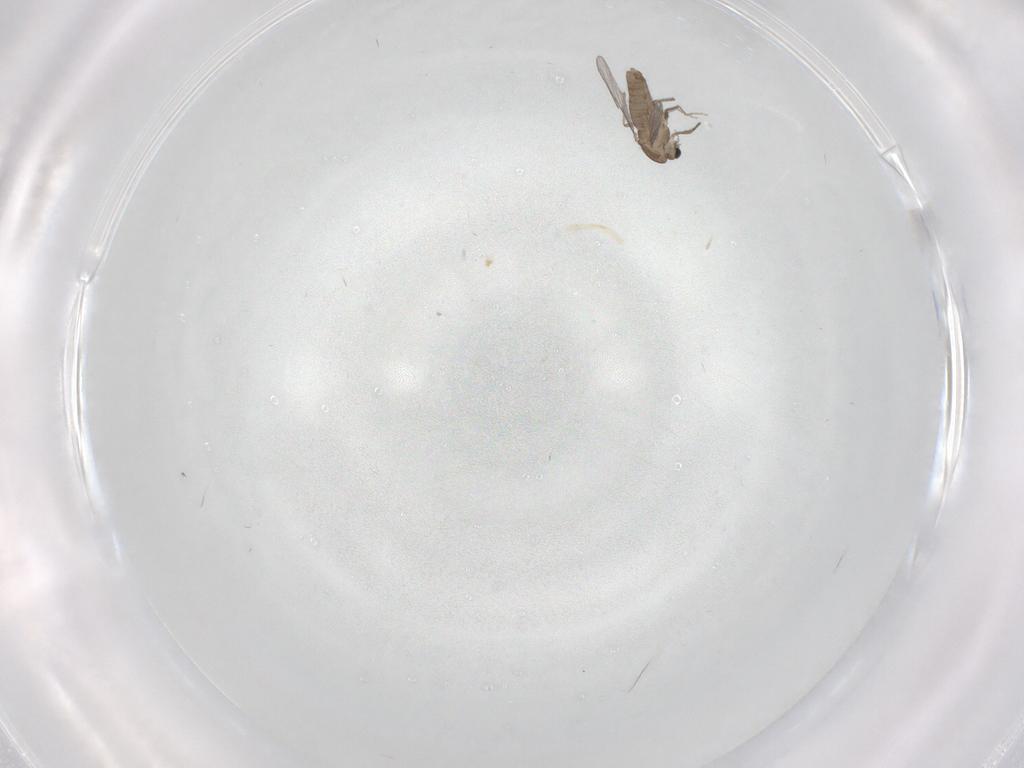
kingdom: Animalia
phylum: Arthropoda
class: Insecta
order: Diptera
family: Chironomidae
